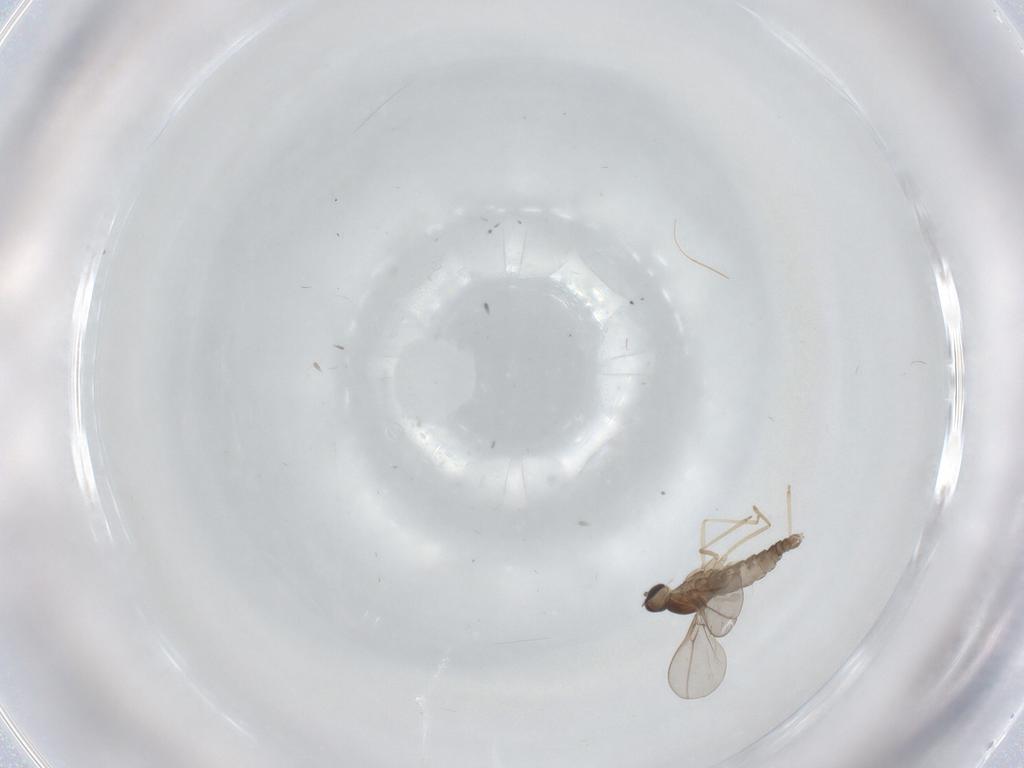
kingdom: Animalia
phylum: Arthropoda
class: Insecta
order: Diptera
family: Cecidomyiidae
